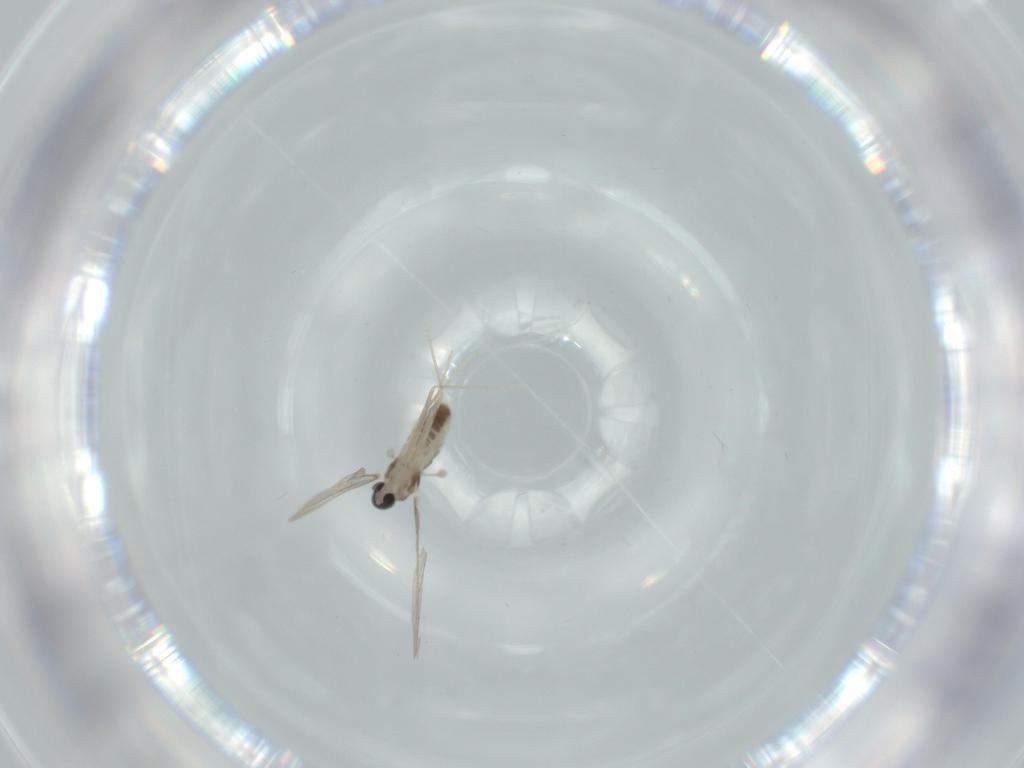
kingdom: Animalia
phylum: Arthropoda
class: Insecta
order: Diptera
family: Cecidomyiidae
